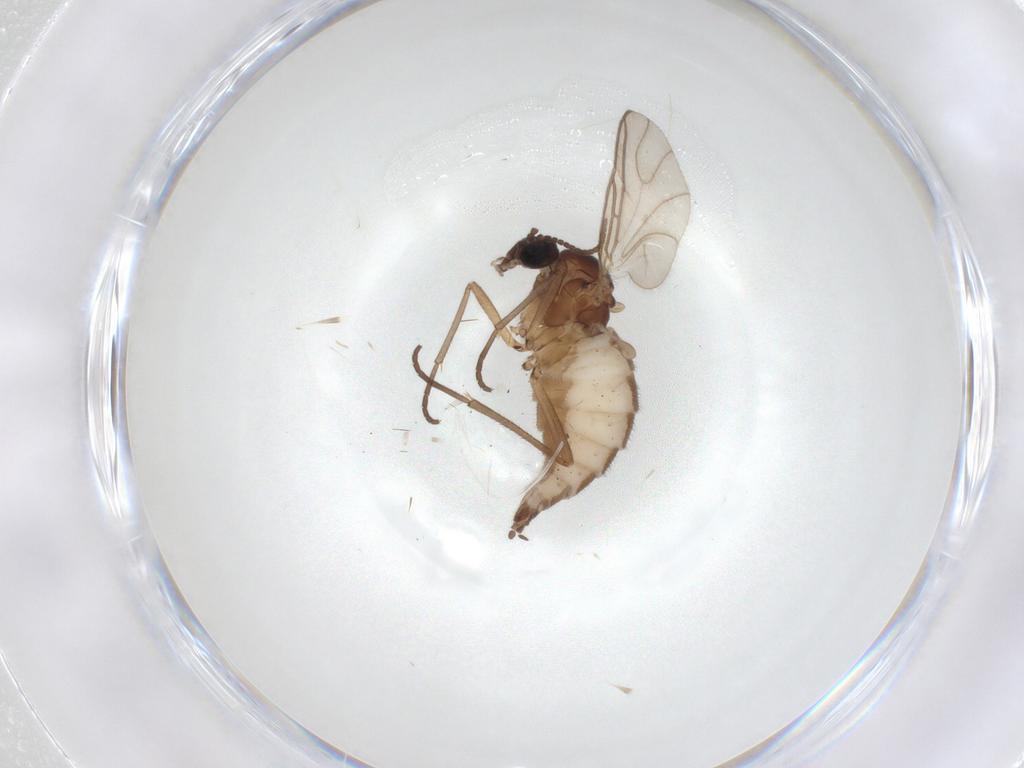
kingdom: Animalia
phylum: Arthropoda
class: Insecta
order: Diptera
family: Sciaridae
